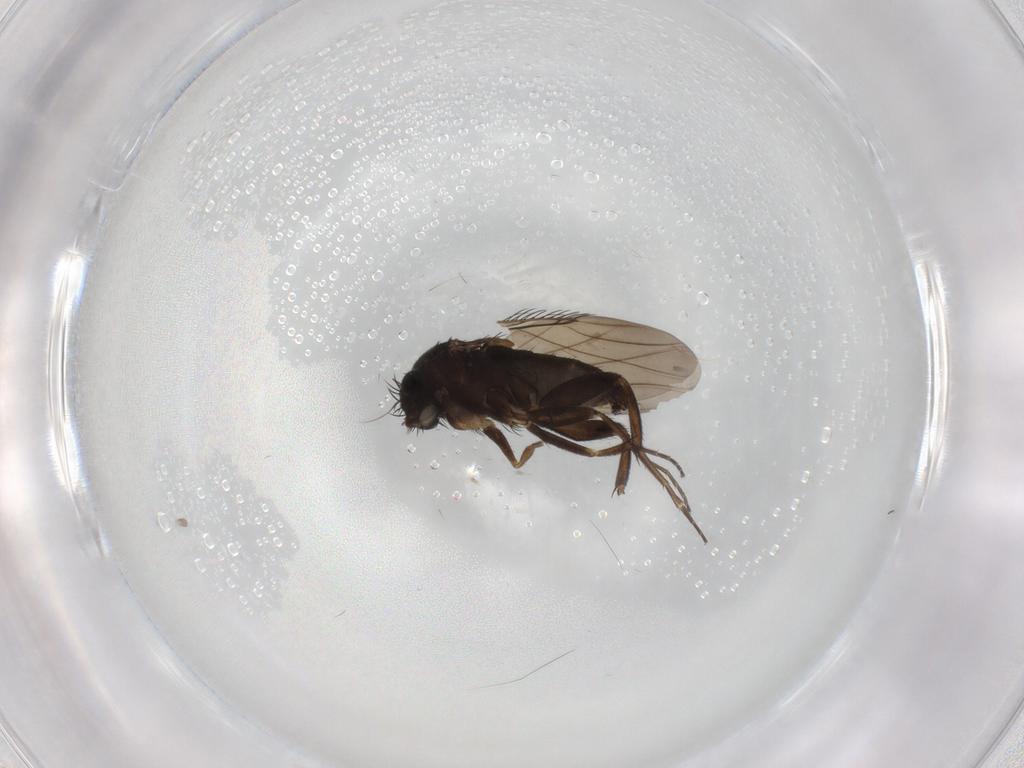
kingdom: Animalia
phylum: Arthropoda
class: Insecta
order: Diptera
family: Phoridae
